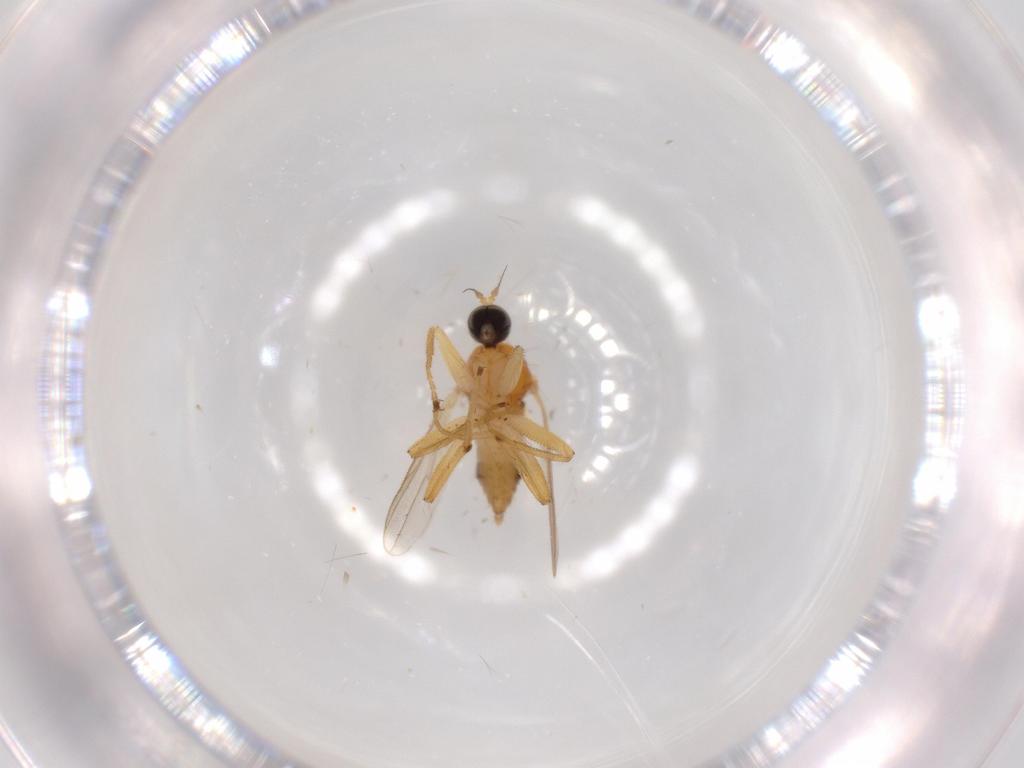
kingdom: Animalia
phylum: Arthropoda
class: Insecta
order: Diptera
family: Hybotidae
